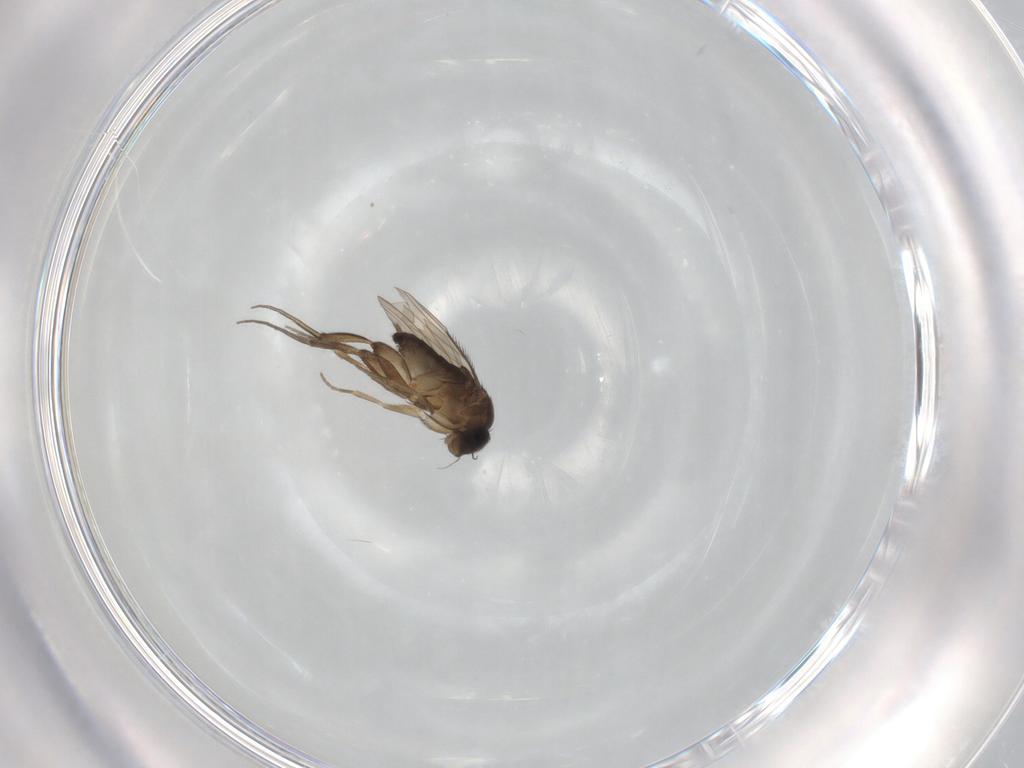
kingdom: Animalia
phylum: Arthropoda
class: Insecta
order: Diptera
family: Phoridae
